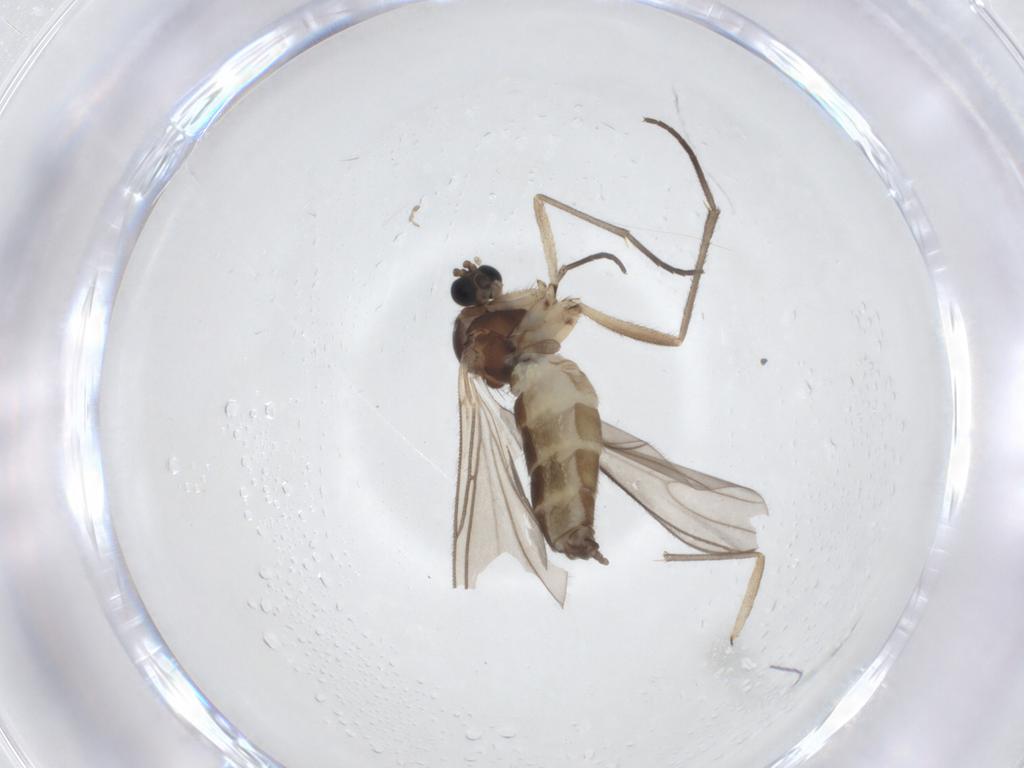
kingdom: Animalia
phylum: Arthropoda
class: Insecta
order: Diptera
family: Sciaridae
